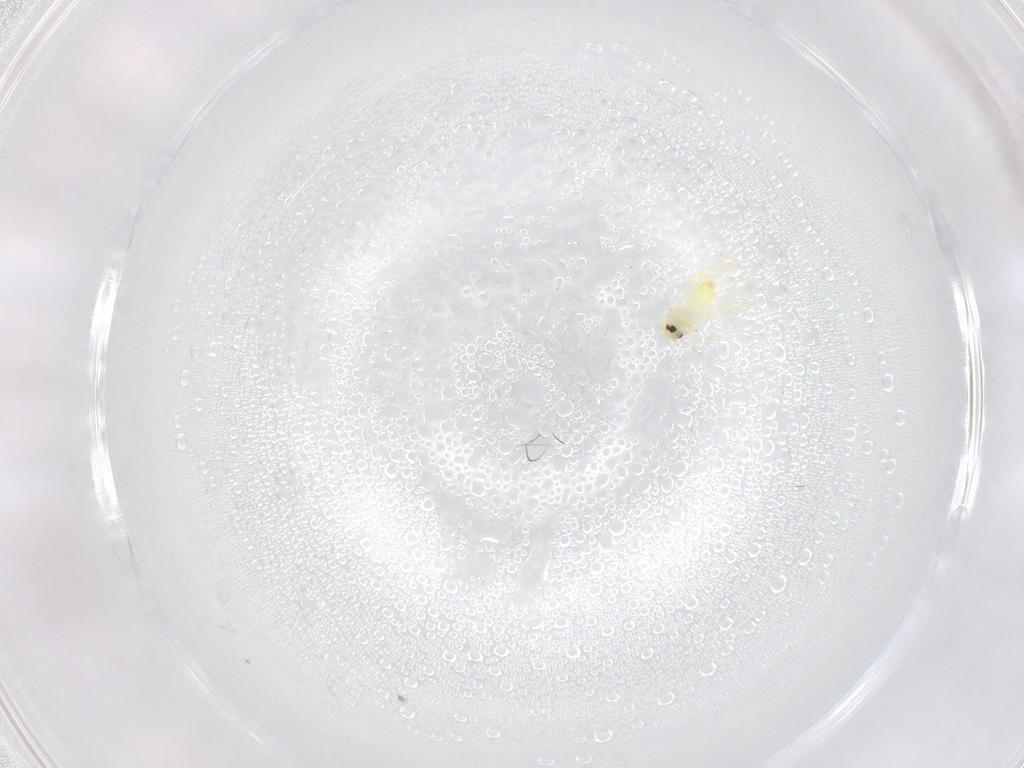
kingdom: Animalia
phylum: Arthropoda
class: Insecta
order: Hemiptera
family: Aleyrodidae
